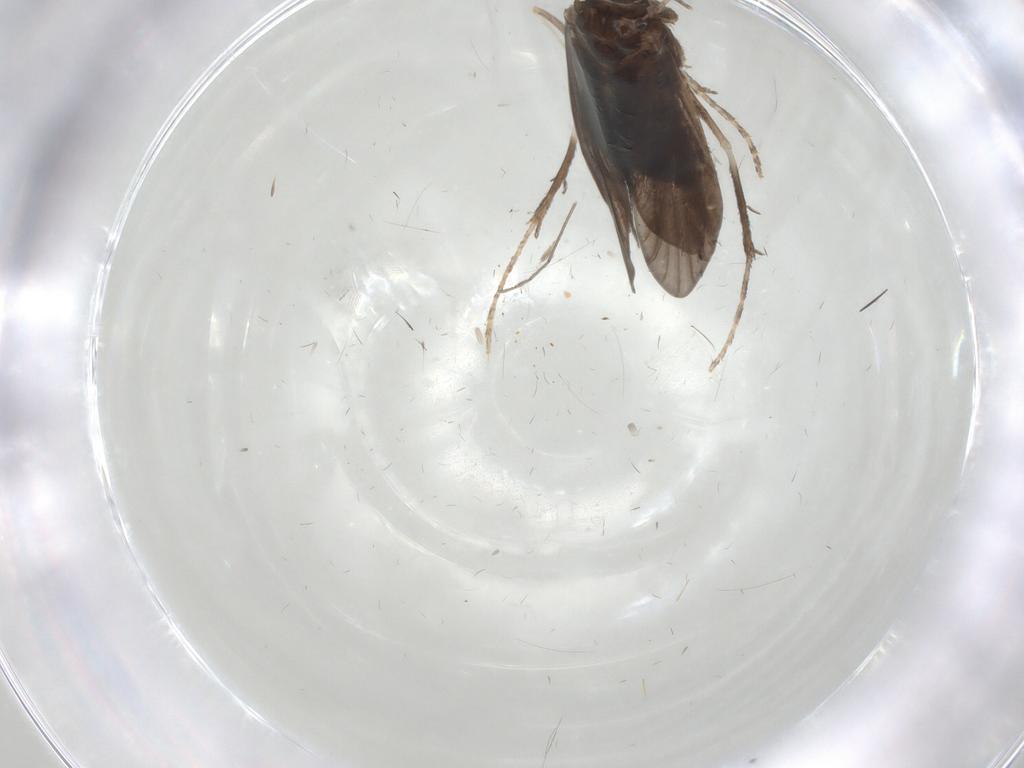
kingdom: Animalia
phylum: Arthropoda
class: Insecta
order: Trichoptera
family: Xiphocentronidae
